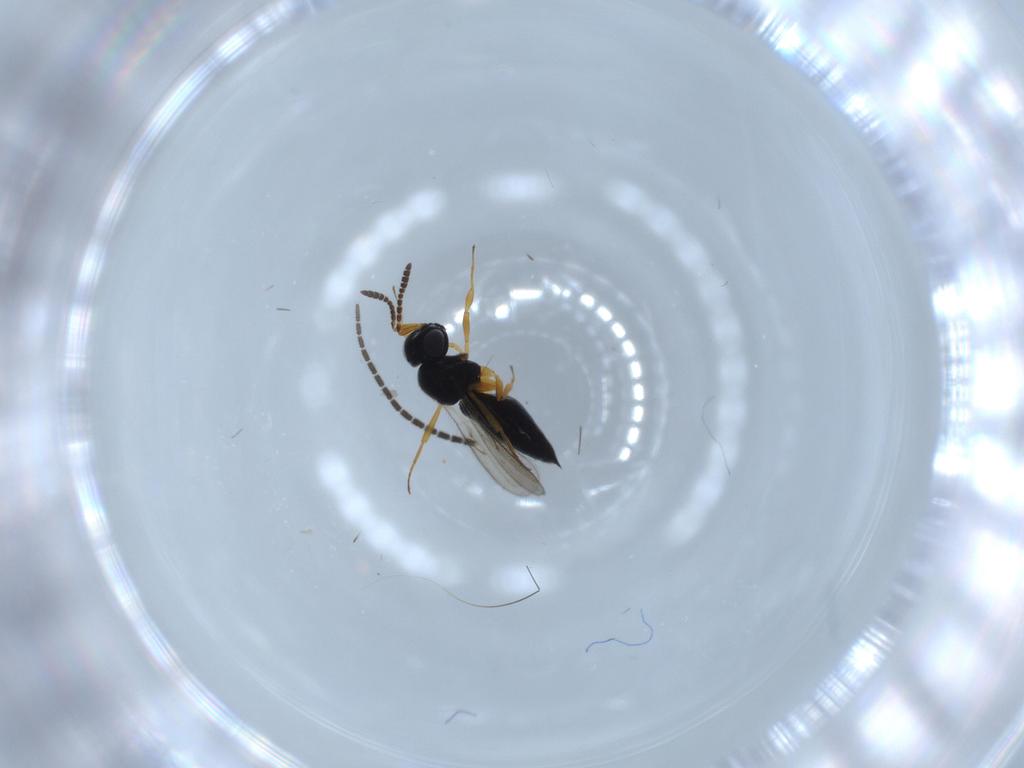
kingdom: Animalia
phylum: Arthropoda
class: Insecta
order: Hymenoptera
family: Scelionidae
